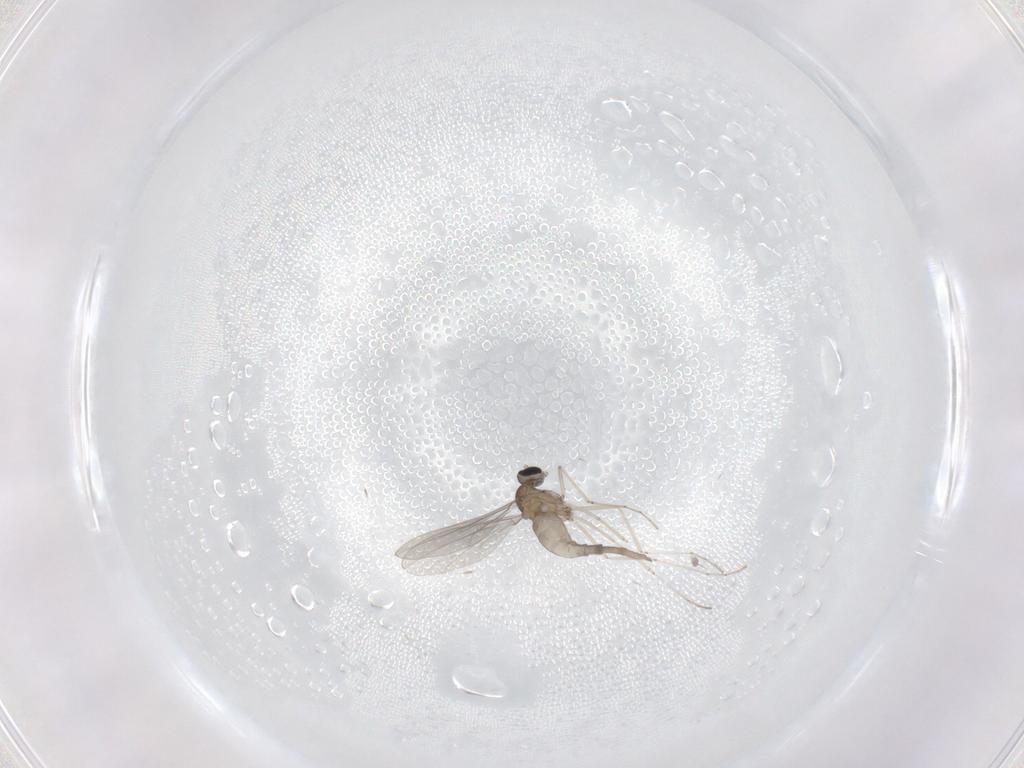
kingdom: Animalia
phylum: Arthropoda
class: Insecta
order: Diptera
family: Cecidomyiidae
